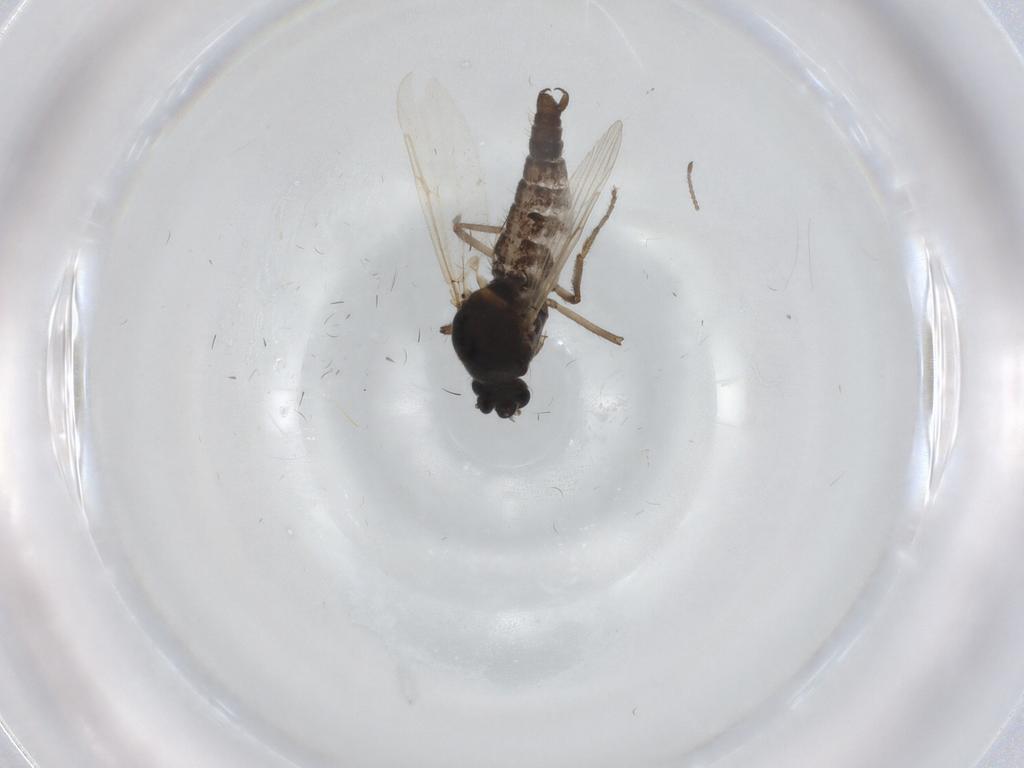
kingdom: Animalia
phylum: Arthropoda
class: Insecta
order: Diptera
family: Ceratopogonidae
